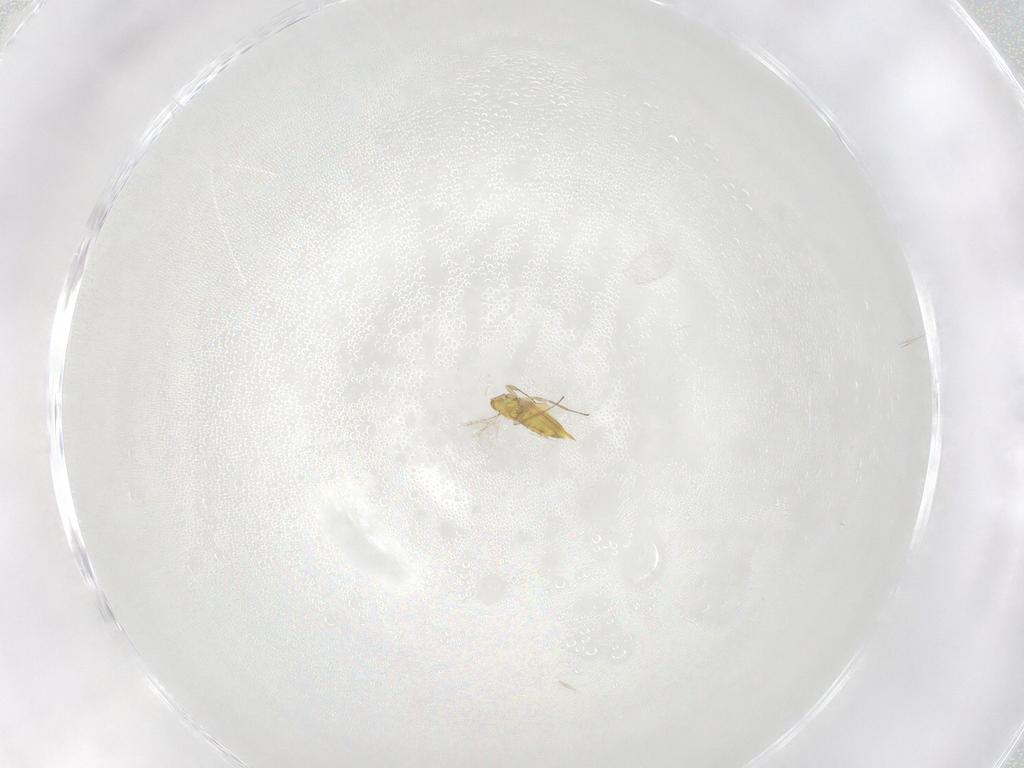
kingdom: Animalia
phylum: Arthropoda
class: Insecta
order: Hymenoptera
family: Aphelinidae
